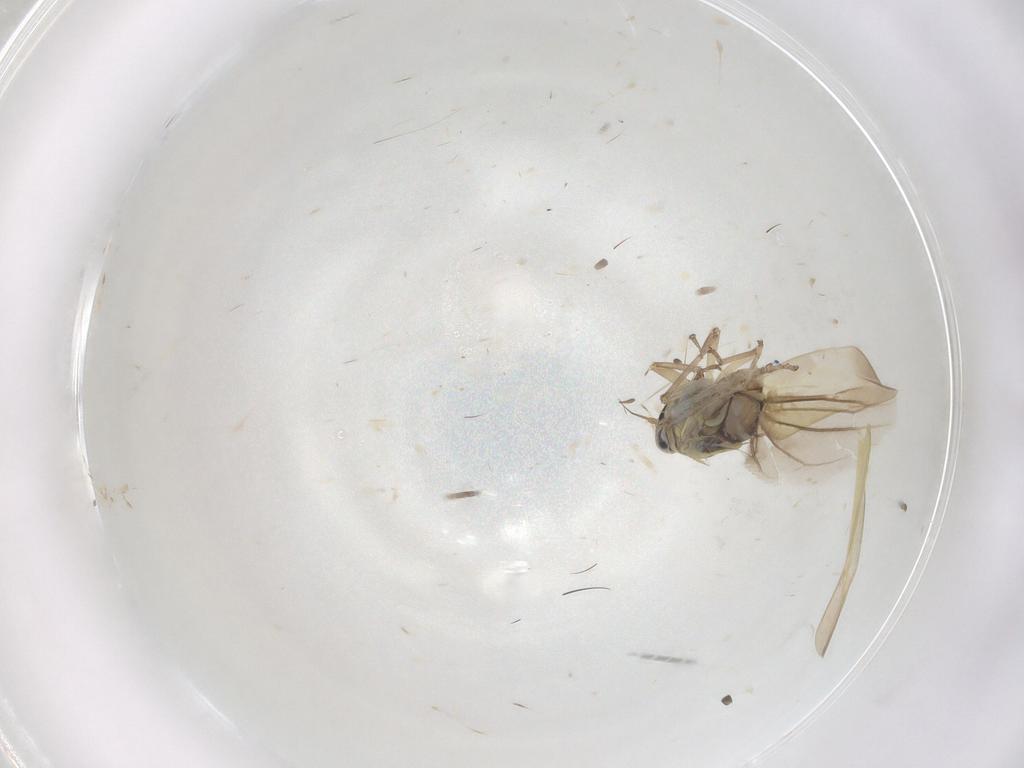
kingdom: Animalia
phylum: Arthropoda
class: Insecta
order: Hemiptera
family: Cicadellidae
